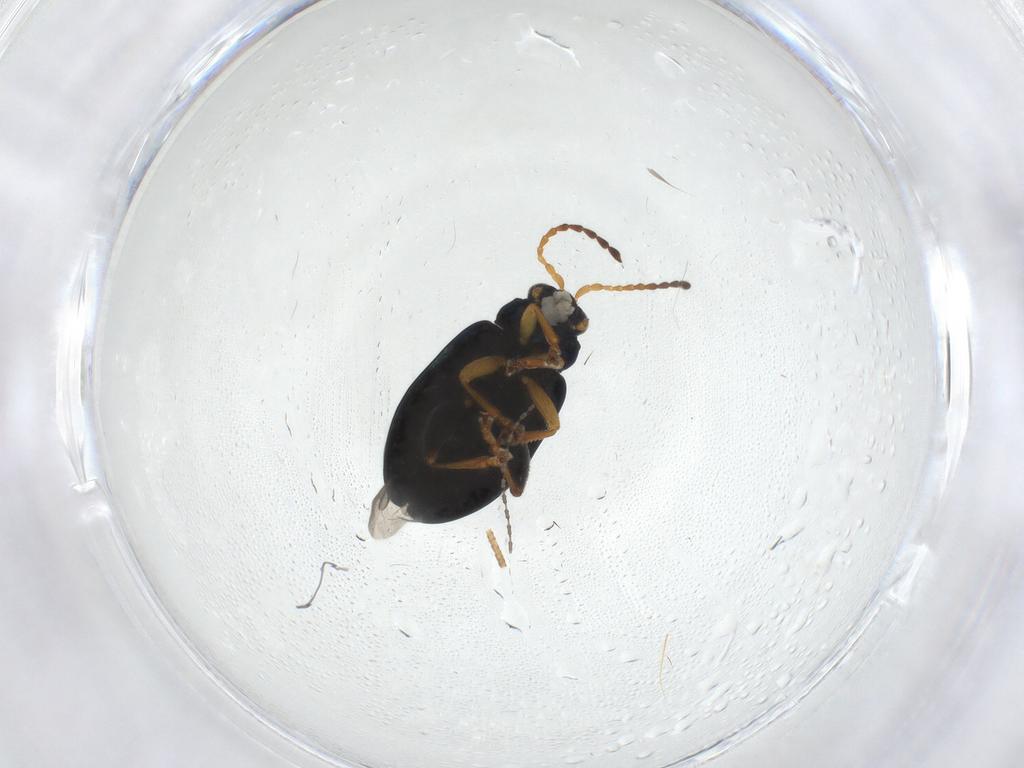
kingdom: Animalia
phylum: Arthropoda
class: Insecta
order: Coleoptera
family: Chrysomelidae
